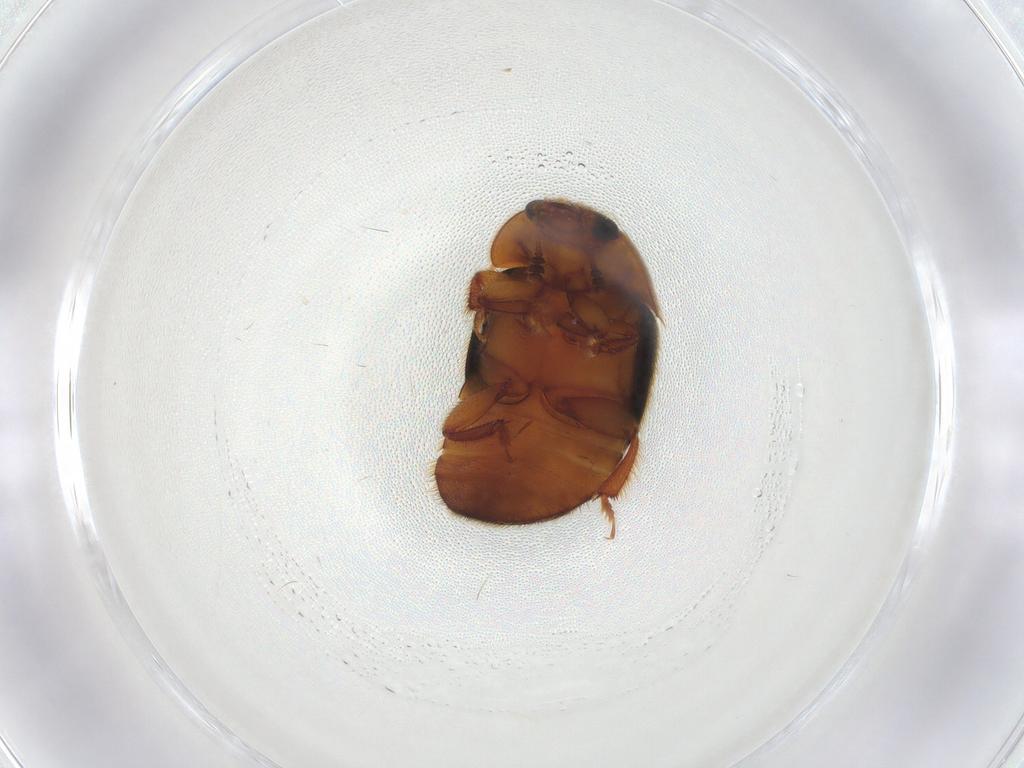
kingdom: Animalia
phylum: Arthropoda
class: Insecta
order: Coleoptera
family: Nitidulidae
